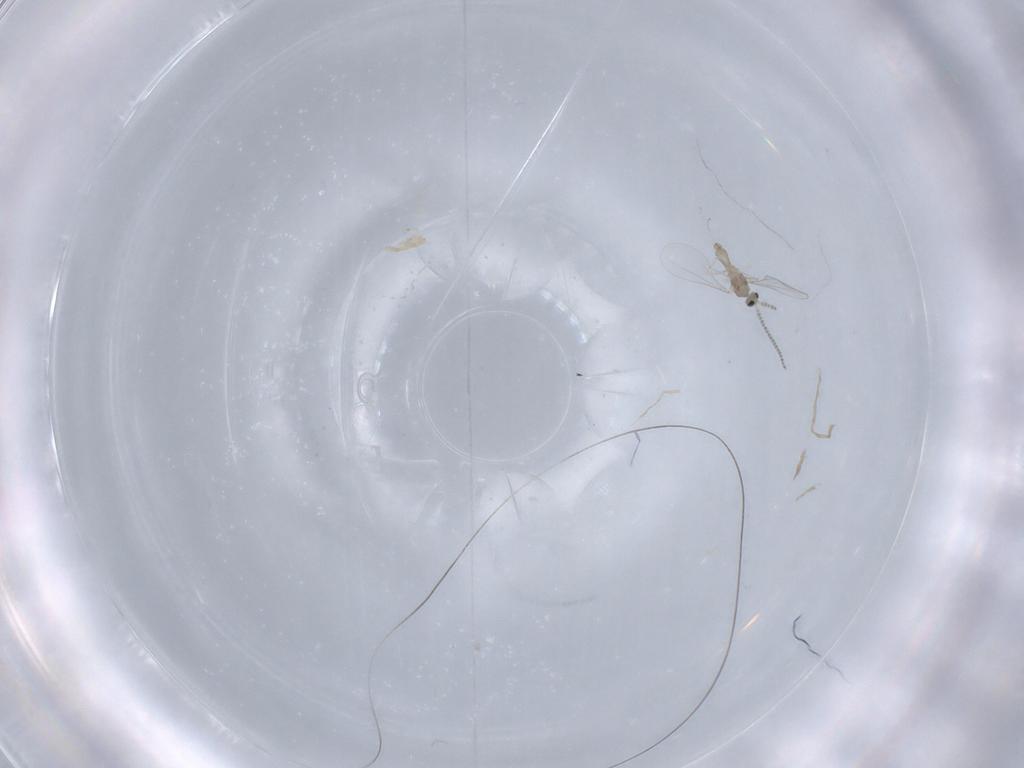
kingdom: Animalia
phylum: Arthropoda
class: Insecta
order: Diptera
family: Cecidomyiidae
